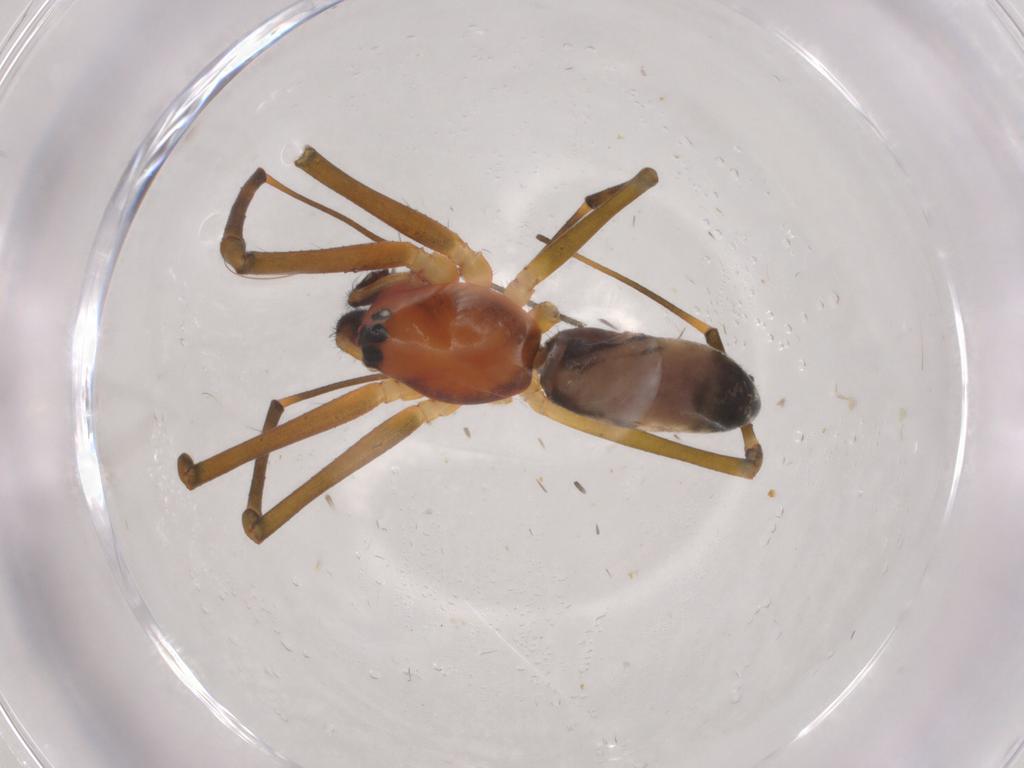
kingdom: Animalia
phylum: Arthropoda
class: Arachnida
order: Araneae
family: Linyphiidae
